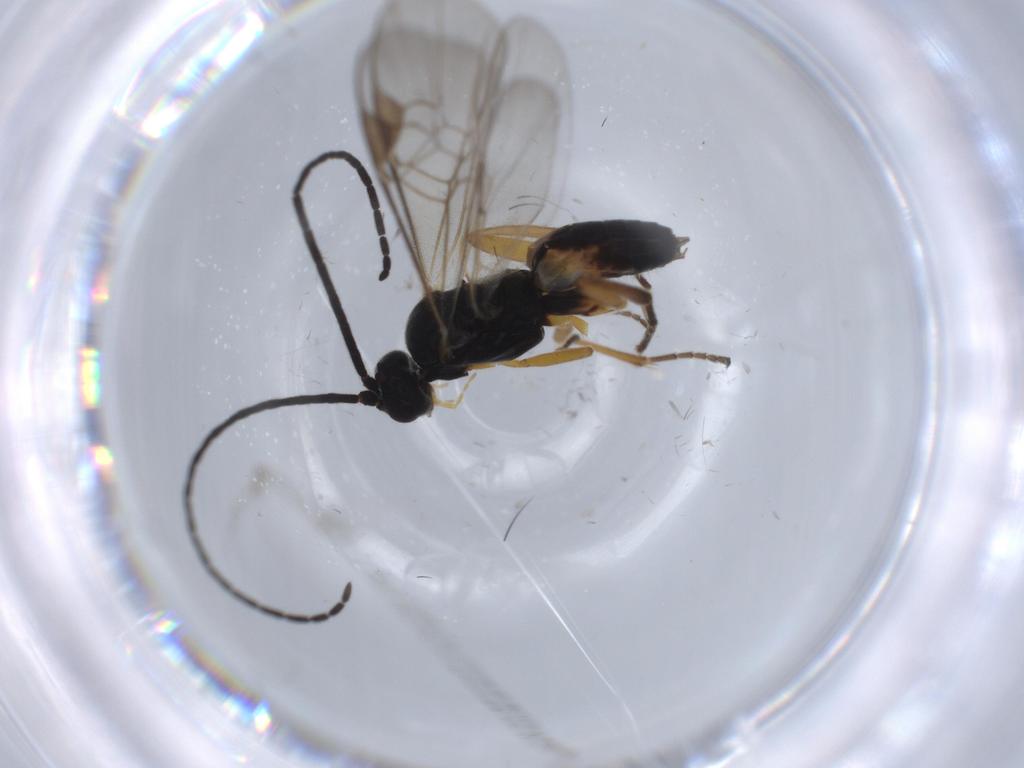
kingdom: Animalia
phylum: Arthropoda
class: Insecta
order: Hymenoptera
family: Braconidae
